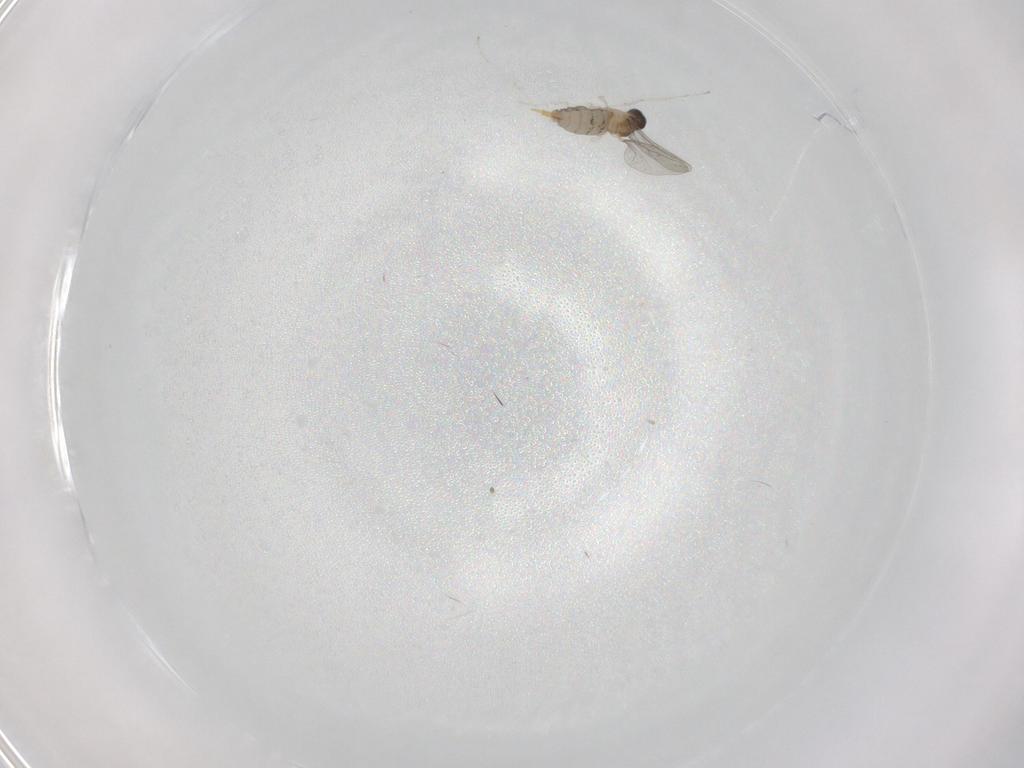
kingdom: Animalia
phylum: Arthropoda
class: Insecta
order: Diptera
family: Cecidomyiidae
